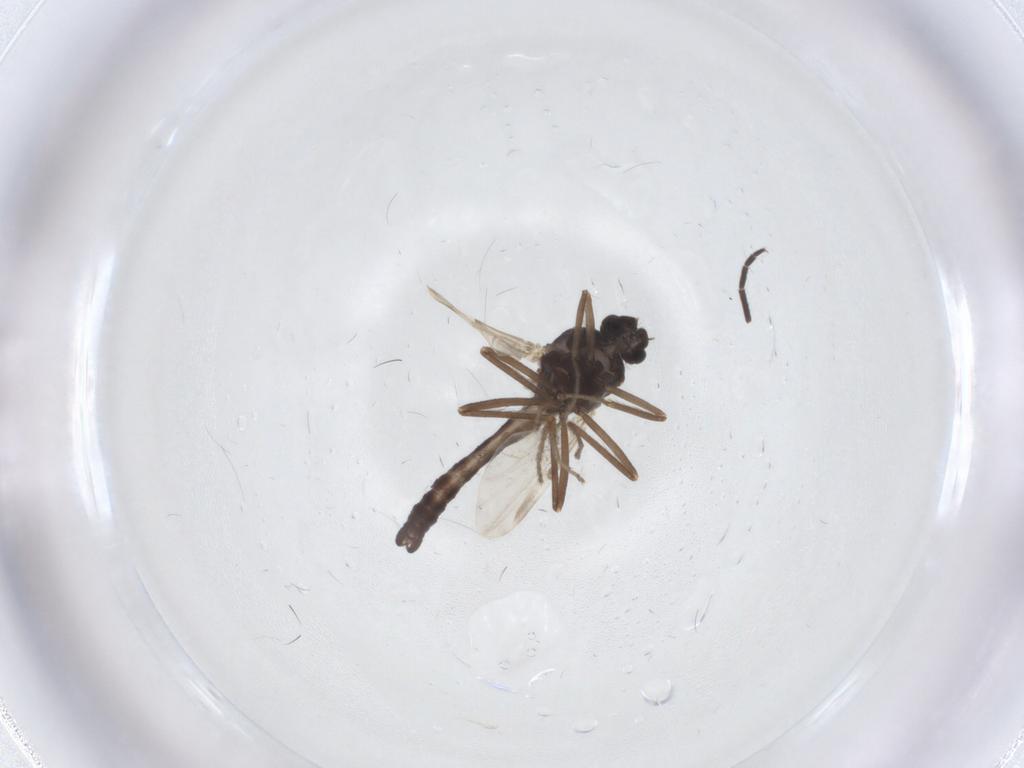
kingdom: Animalia
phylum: Arthropoda
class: Insecta
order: Diptera
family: Ceratopogonidae
